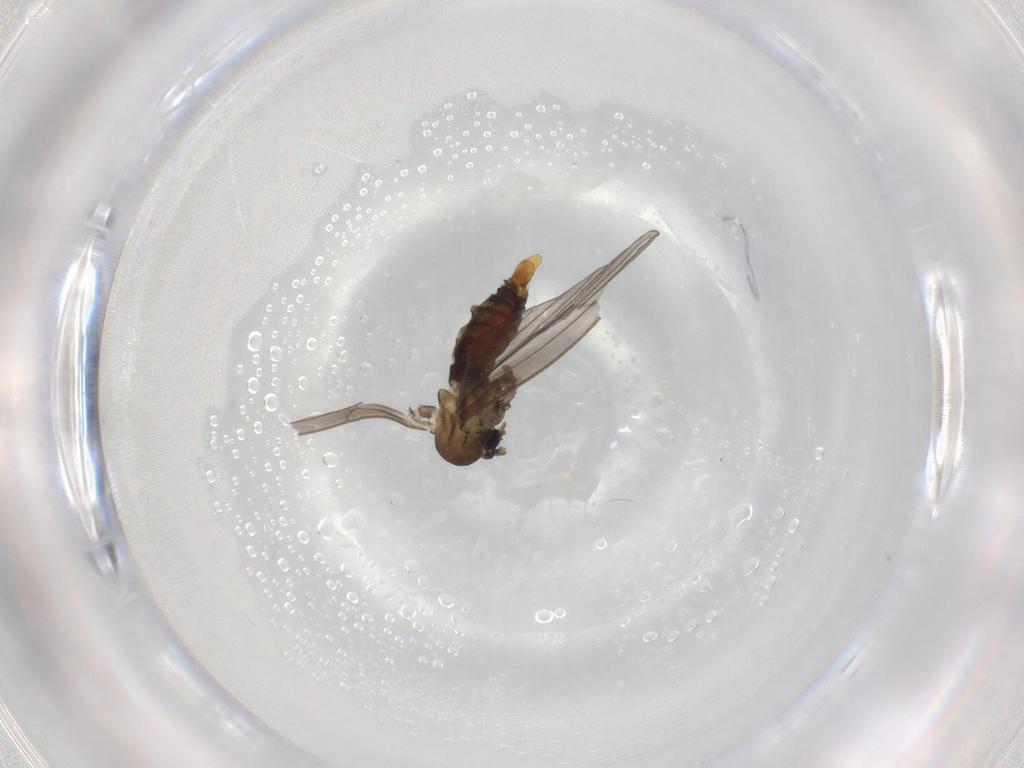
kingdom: Animalia
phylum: Arthropoda
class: Insecta
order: Diptera
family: Psychodidae
